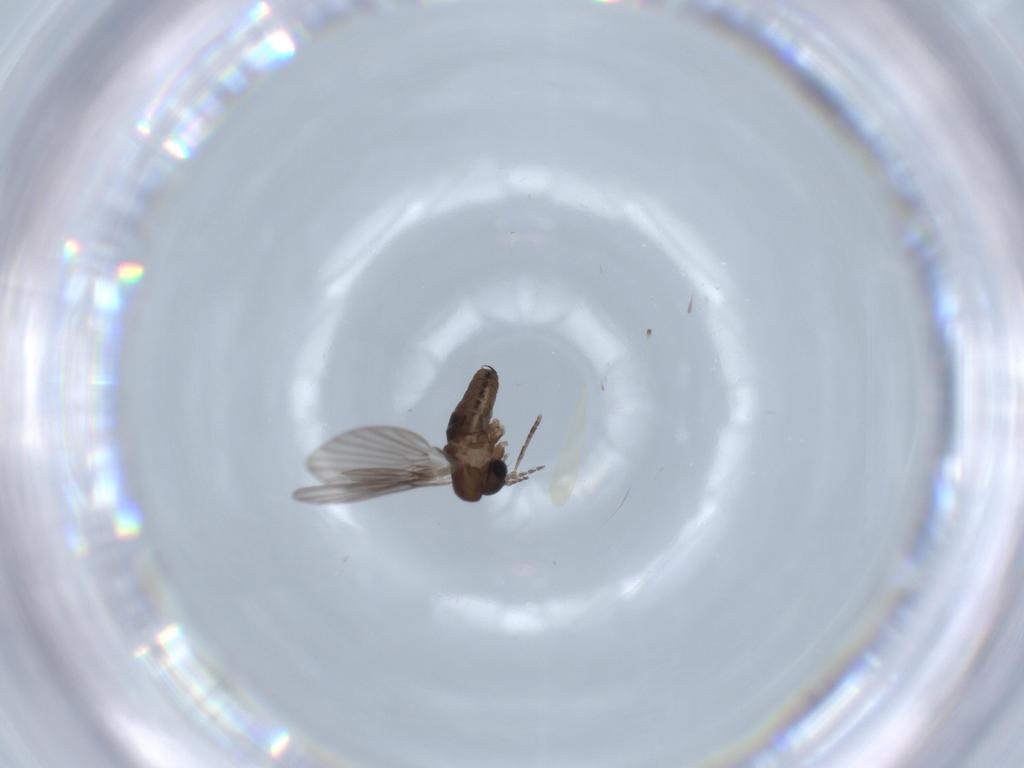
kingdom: Animalia
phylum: Arthropoda
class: Insecta
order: Diptera
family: Psychodidae
